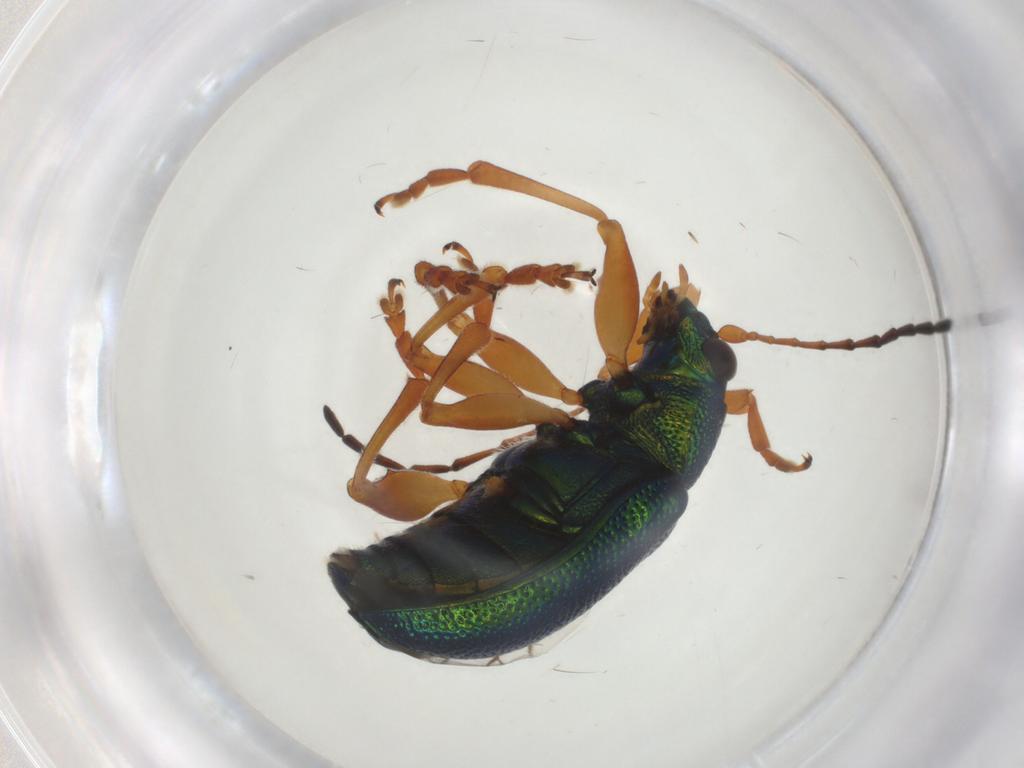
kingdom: Animalia
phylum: Arthropoda
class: Insecta
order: Coleoptera
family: Chrysomelidae
